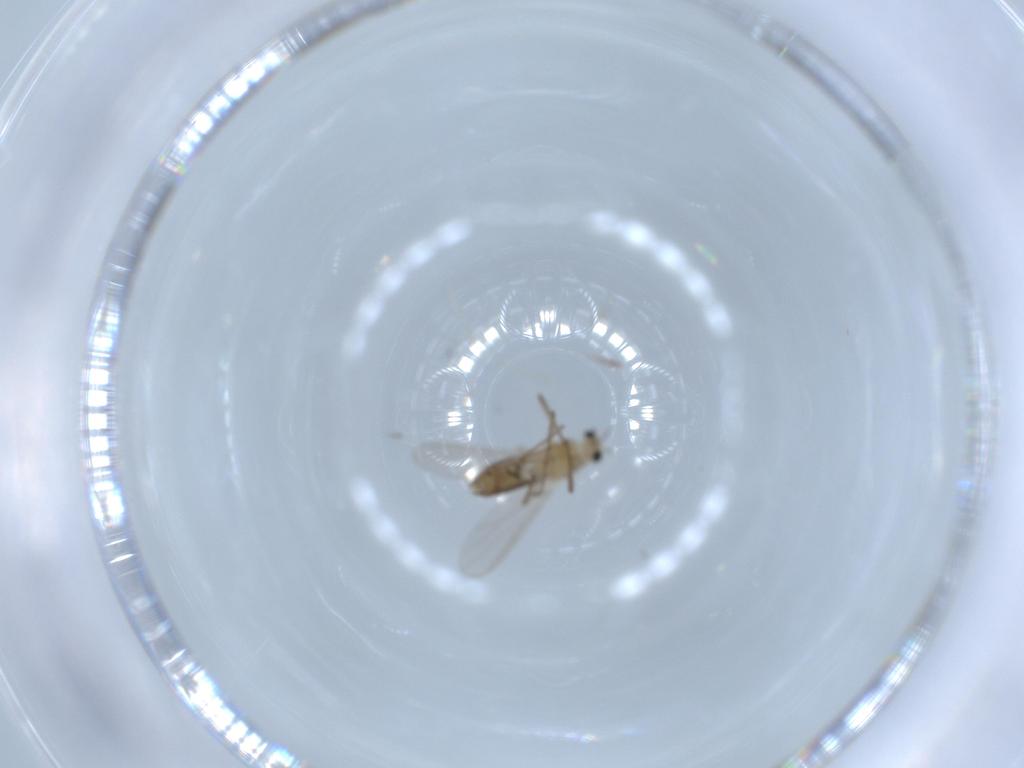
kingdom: Animalia
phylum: Arthropoda
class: Insecta
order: Diptera
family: Chironomidae
